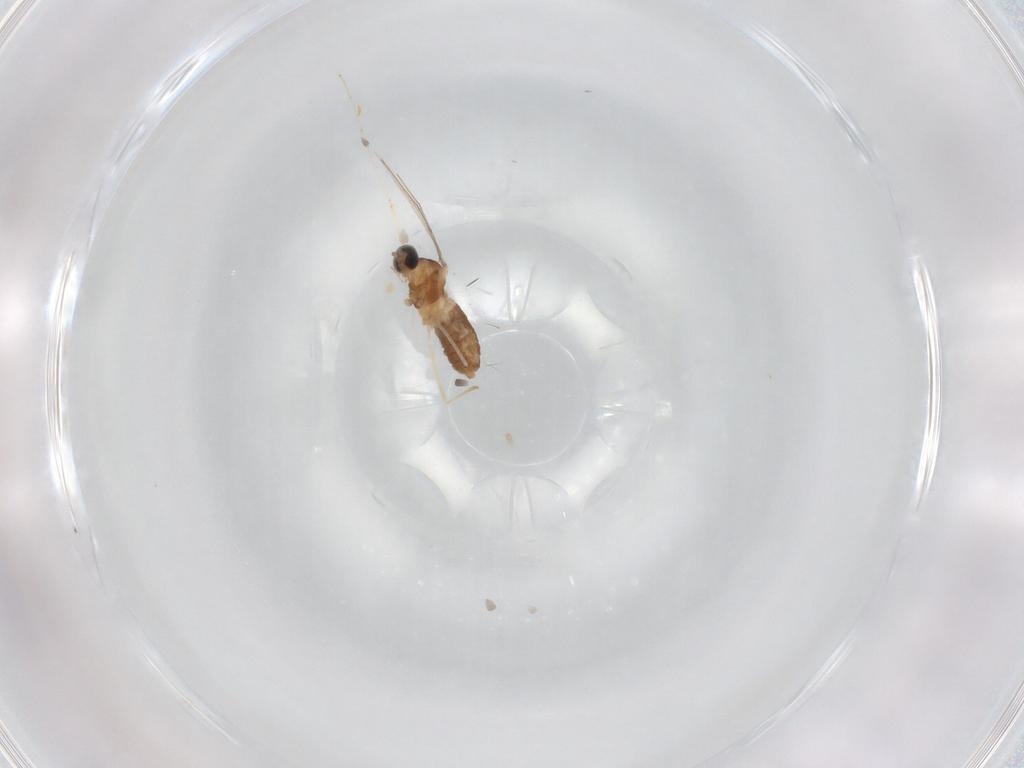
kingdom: Animalia
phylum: Arthropoda
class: Insecta
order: Diptera
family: Cecidomyiidae
